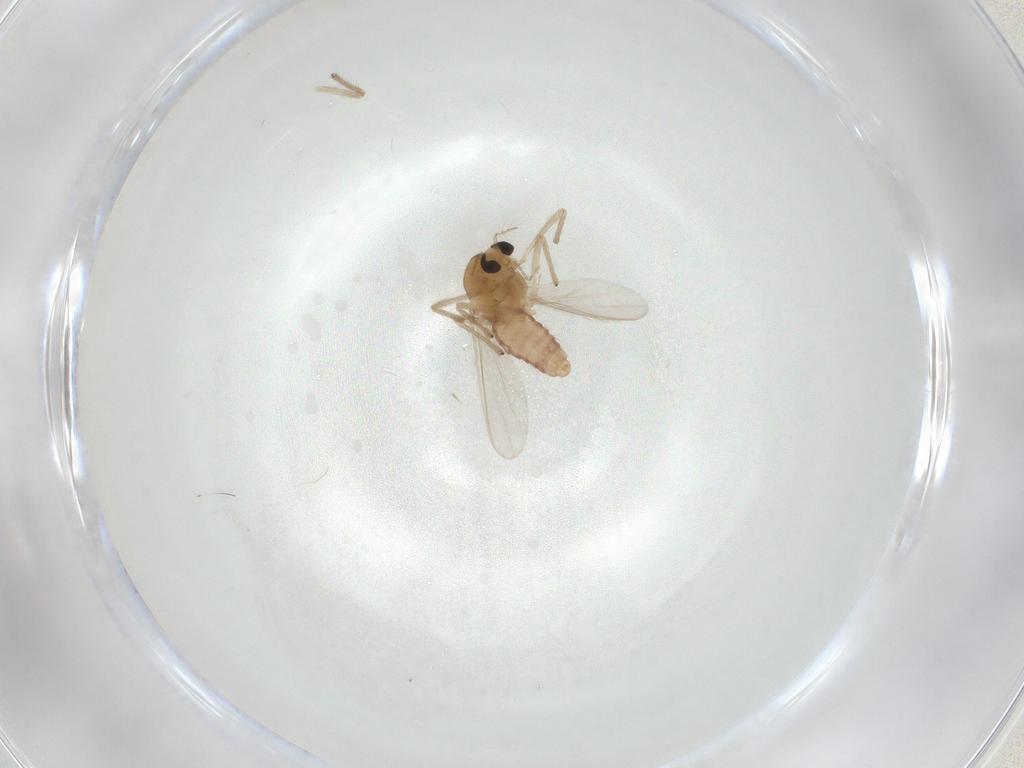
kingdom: Animalia
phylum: Arthropoda
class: Insecta
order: Diptera
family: Chironomidae
